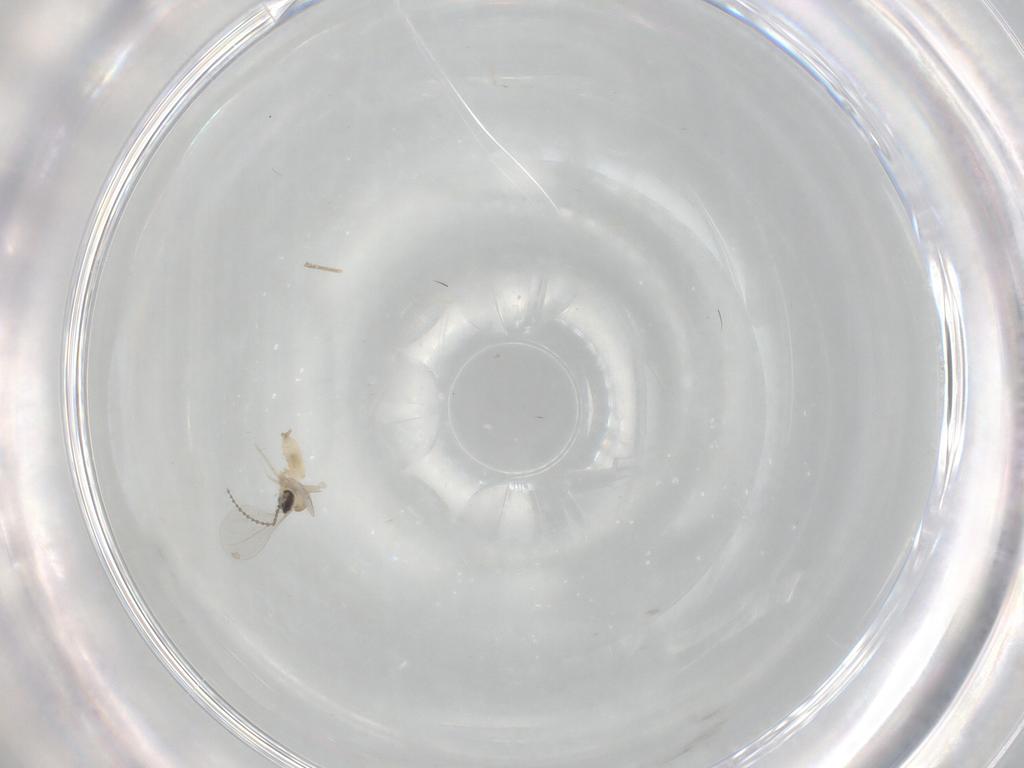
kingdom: Animalia
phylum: Arthropoda
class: Insecta
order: Diptera
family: Cecidomyiidae
